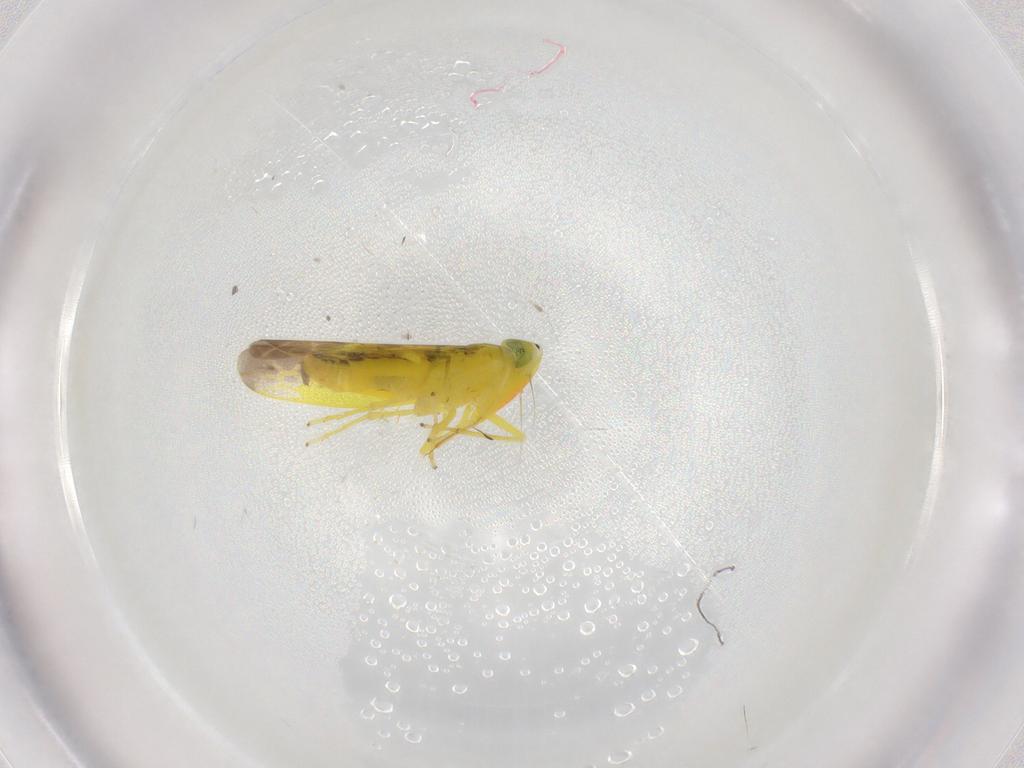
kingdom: Animalia
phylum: Arthropoda
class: Insecta
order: Hemiptera
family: Cicadellidae
